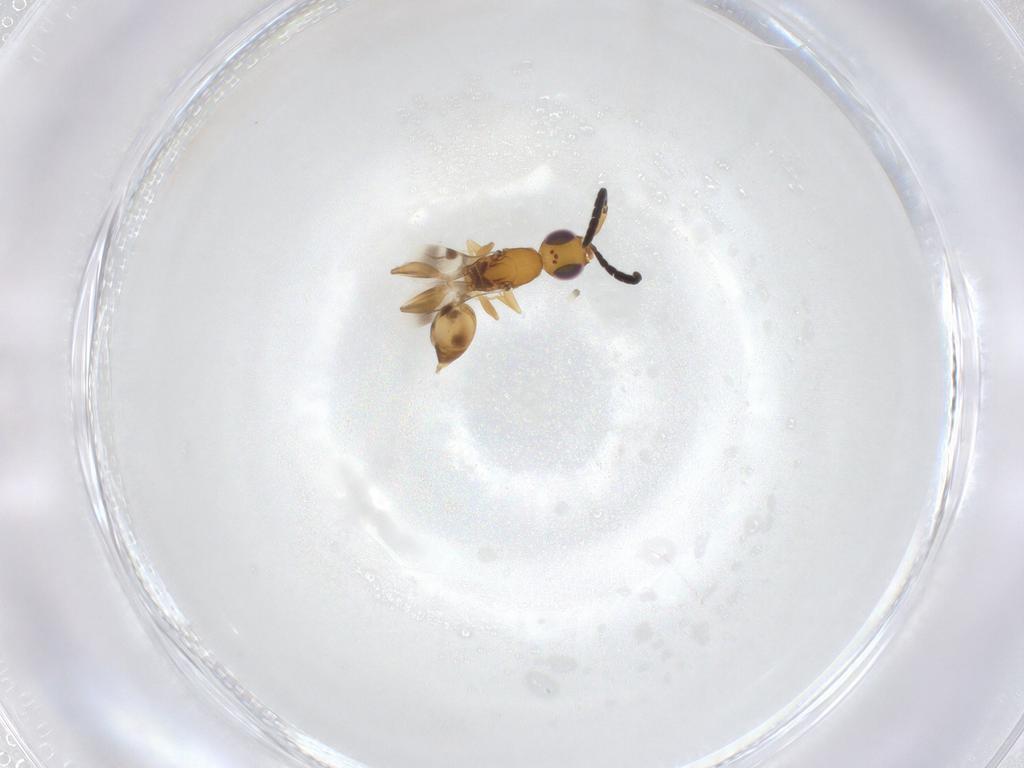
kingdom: Animalia
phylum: Arthropoda
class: Insecta
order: Hymenoptera
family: Megaspilidae
